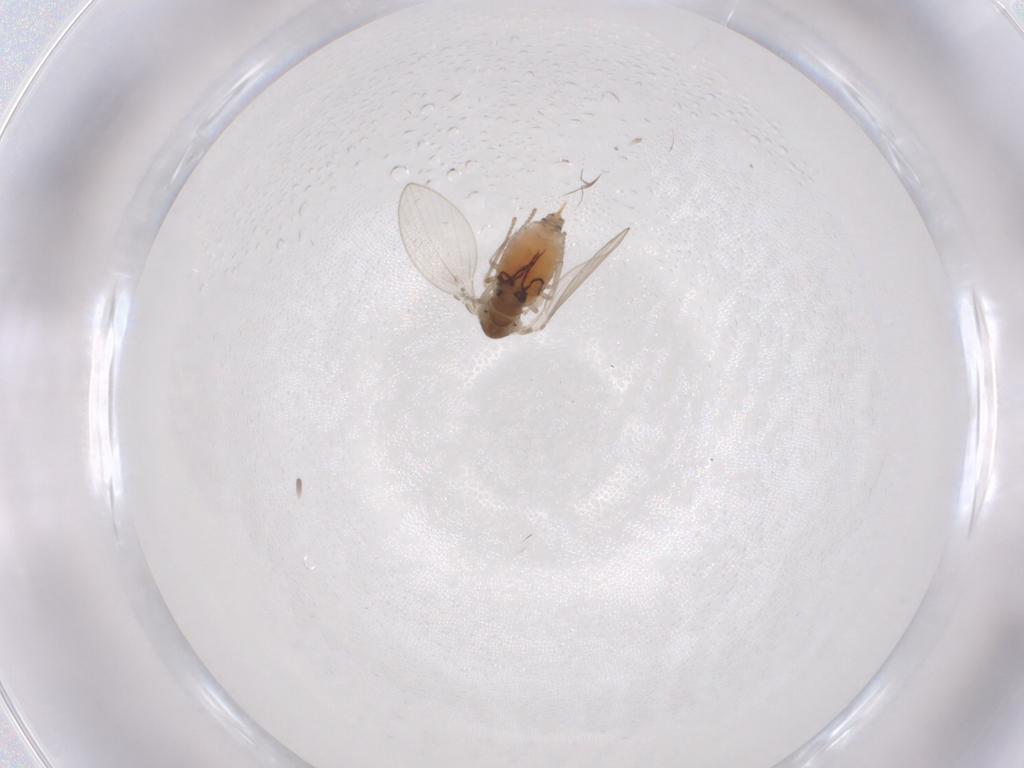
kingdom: Animalia
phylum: Arthropoda
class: Insecta
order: Diptera
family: Psychodidae
